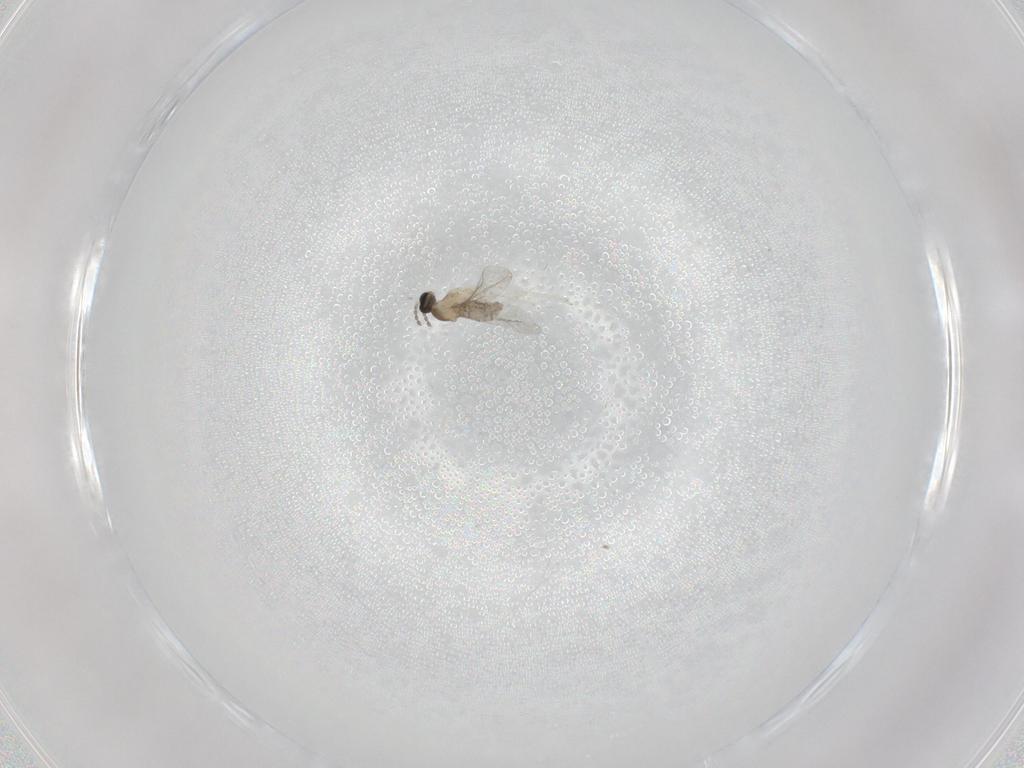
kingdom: Animalia
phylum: Arthropoda
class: Insecta
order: Diptera
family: Cecidomyiidae
